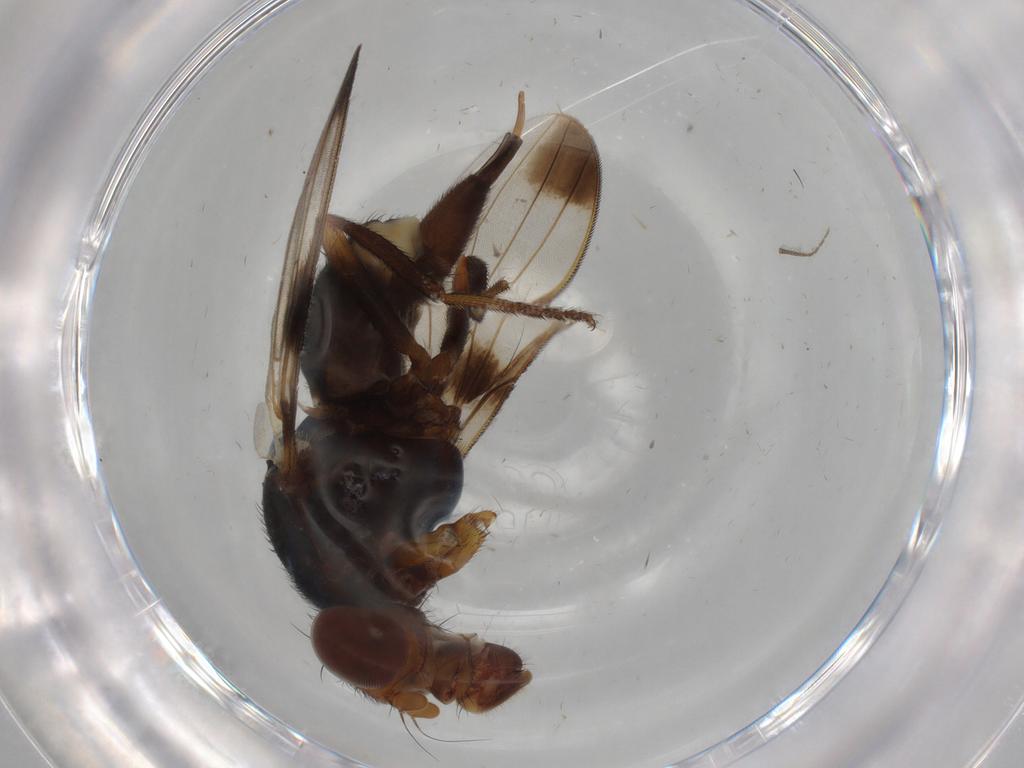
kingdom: Animalia
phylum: Arthropoda
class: Insecta
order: Diptera
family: Ulidiidae
